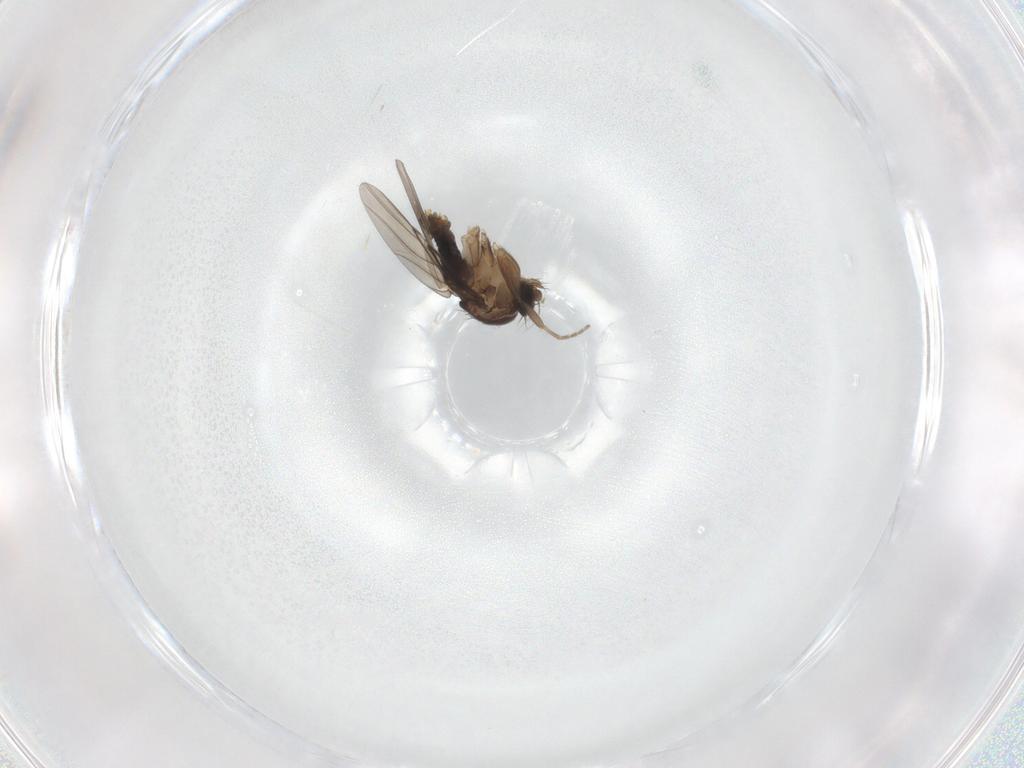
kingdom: Animalia
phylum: Arthropoda
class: Insecta
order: Diptera
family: Phoridae
